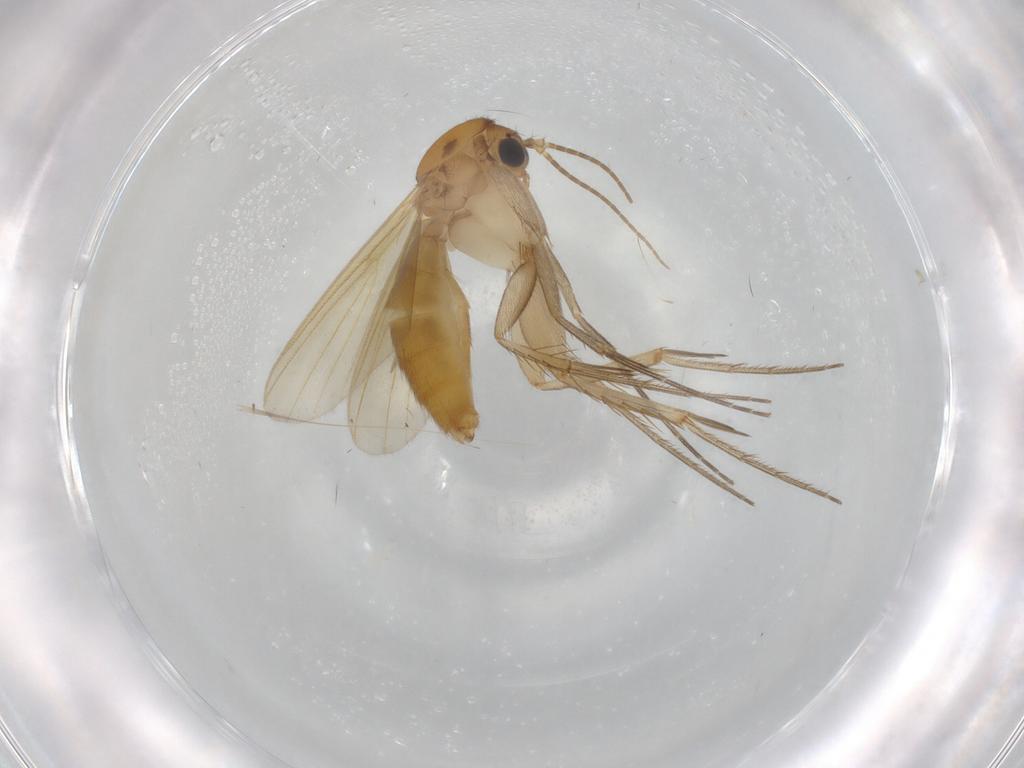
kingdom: Animalia
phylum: Arthropoda
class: Insecta
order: Diptera
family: Mycetophilidae
